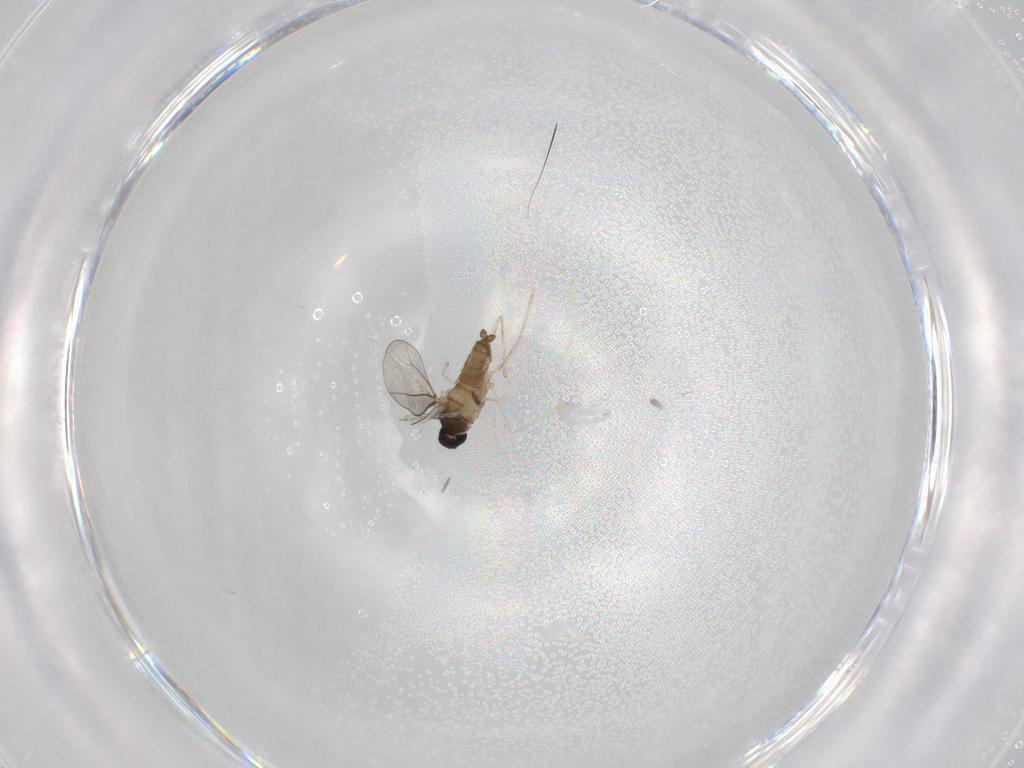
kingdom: Animalia
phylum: Arthropoda
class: Insecta
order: Diptera
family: Cecidomyiidae
